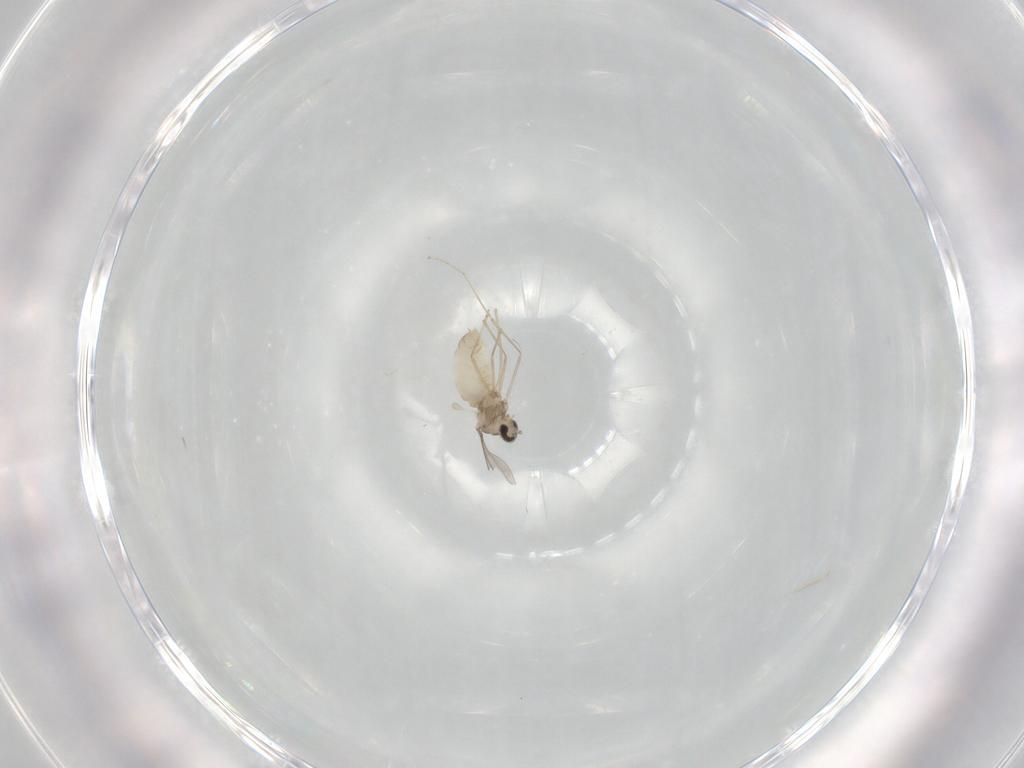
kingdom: Animalia
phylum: Arthropoda
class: Insecta
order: Diptera
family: Cecidomyiidae
